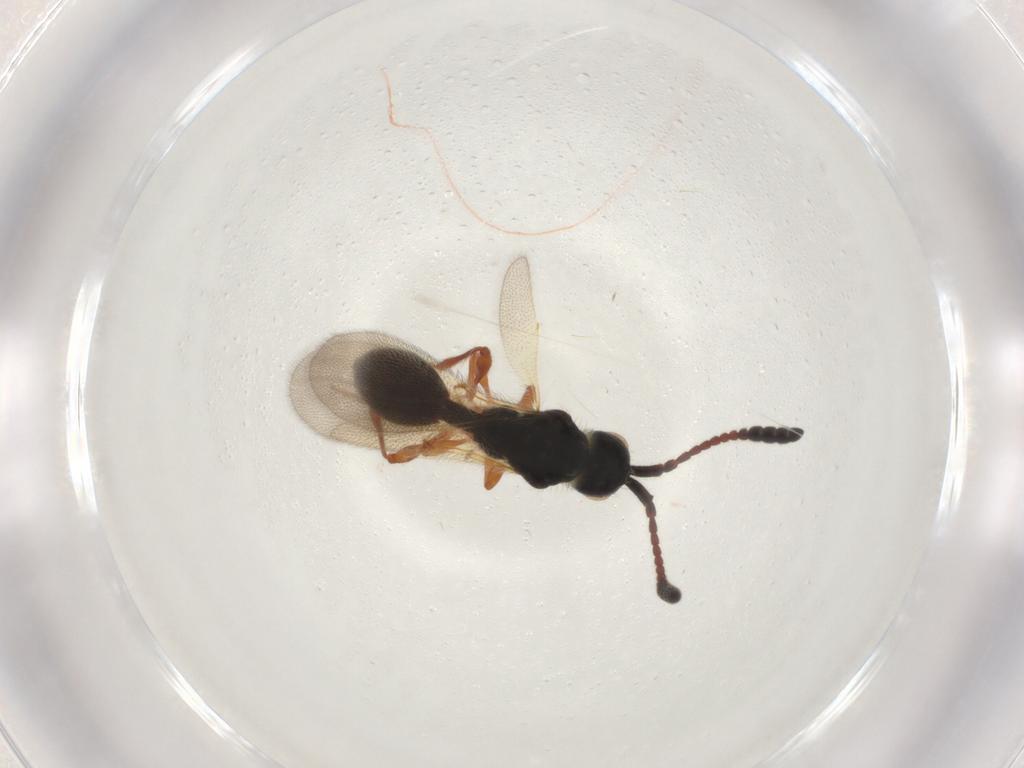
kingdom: Animalia
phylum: Arthropoda
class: Insecta
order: Hymenoptera
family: Diapriidae
